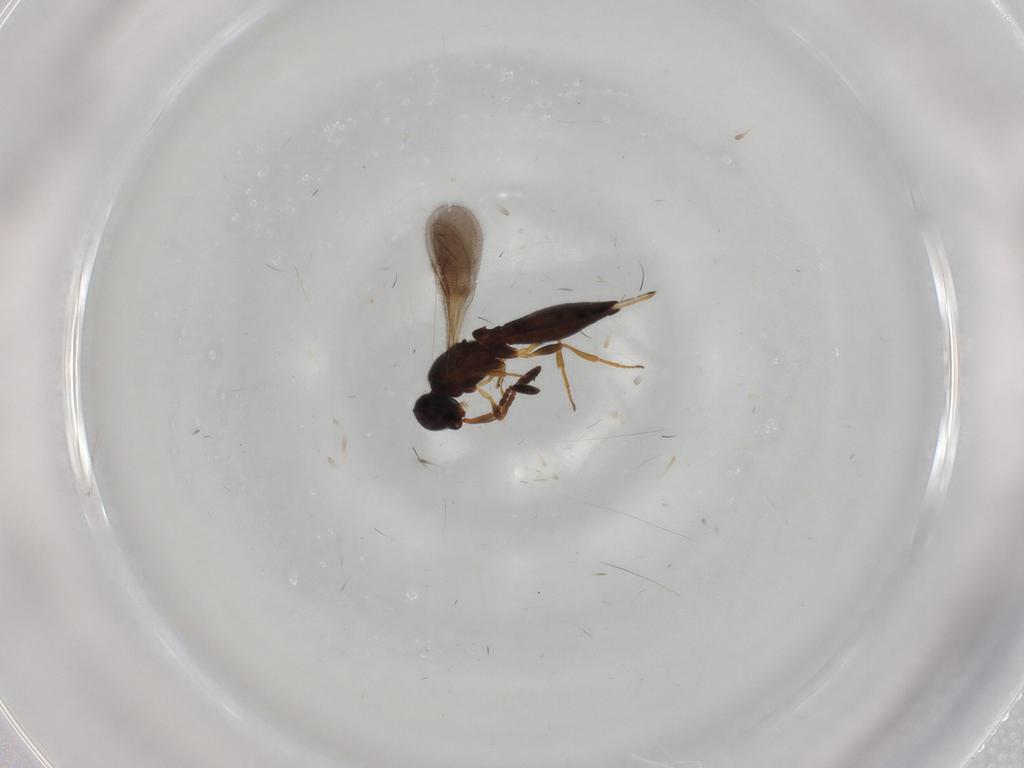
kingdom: Animalia
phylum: Arthropoda
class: Insecta
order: Hymenoptera
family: Scelionidae
